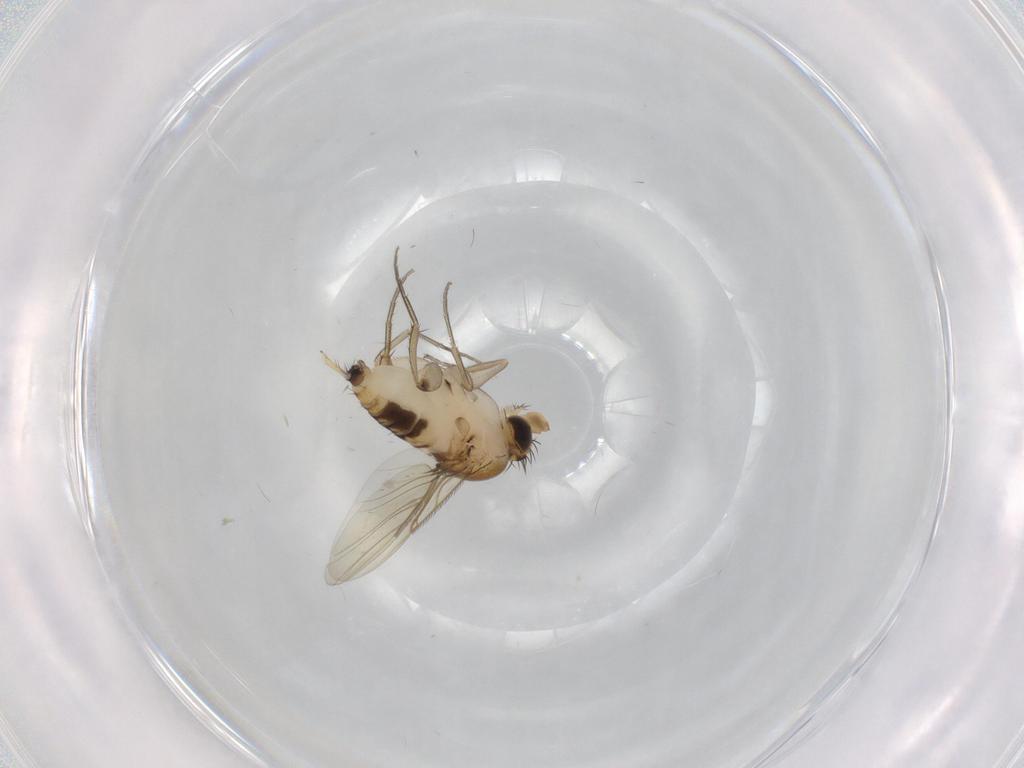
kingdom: Animalia
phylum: Arthropoda
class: Insecta
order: Diptera
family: Phoridae
